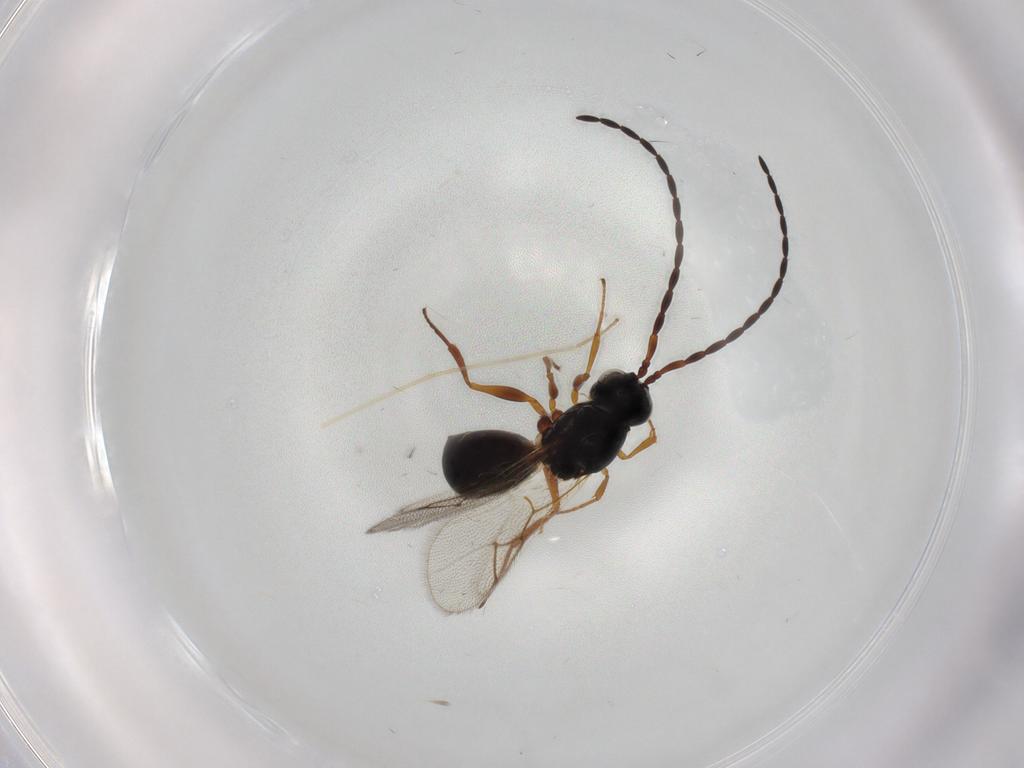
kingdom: Animalia
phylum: Arthropoda
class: Insecta
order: Hymenoptera
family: Figitidae
